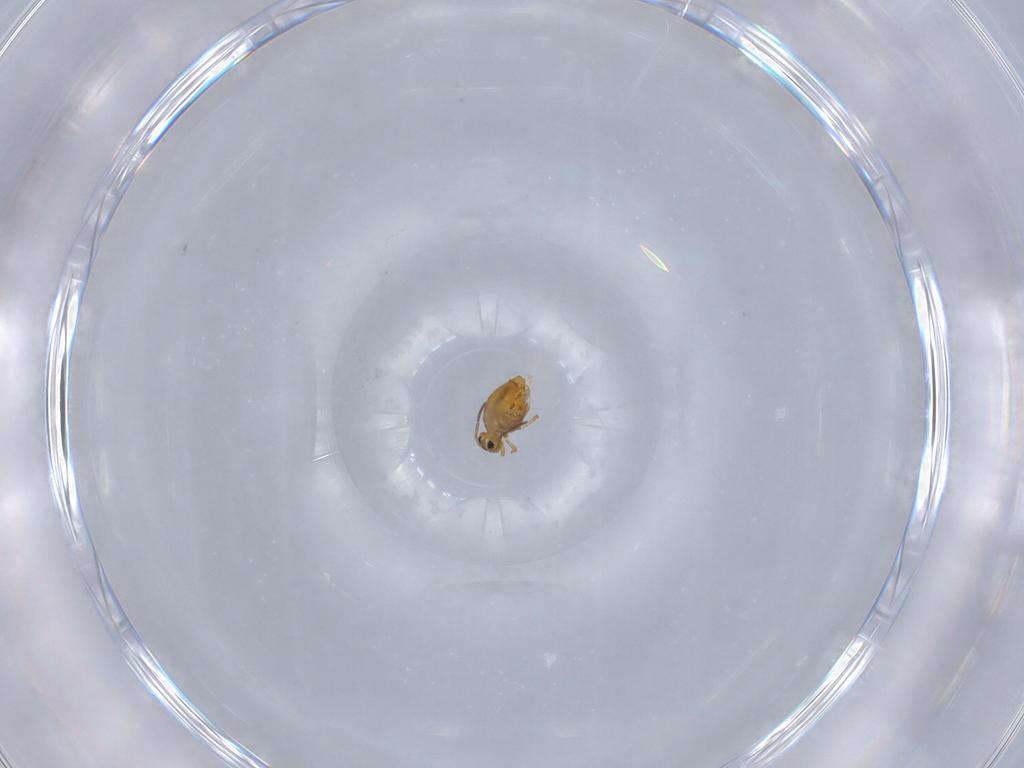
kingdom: Animalia
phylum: Arthropoda
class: Collembola
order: Symphypleona
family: Katiannidae
